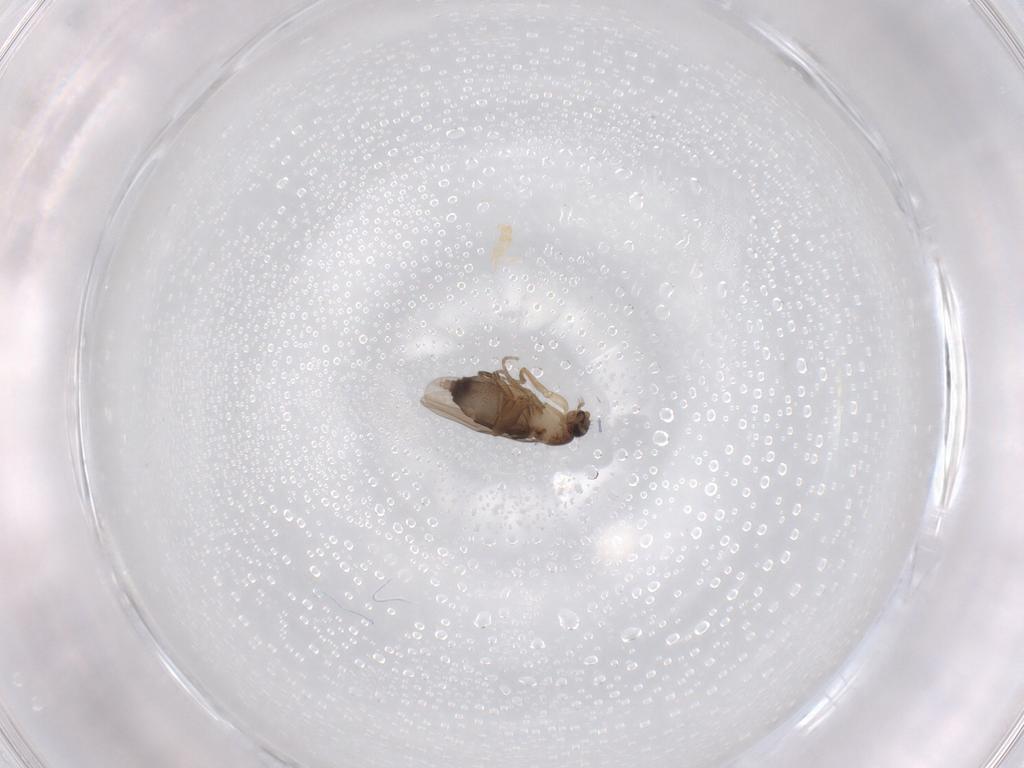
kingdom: Animalia
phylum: Arthropoda
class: Insecta
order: Diptera
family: Phoridae
